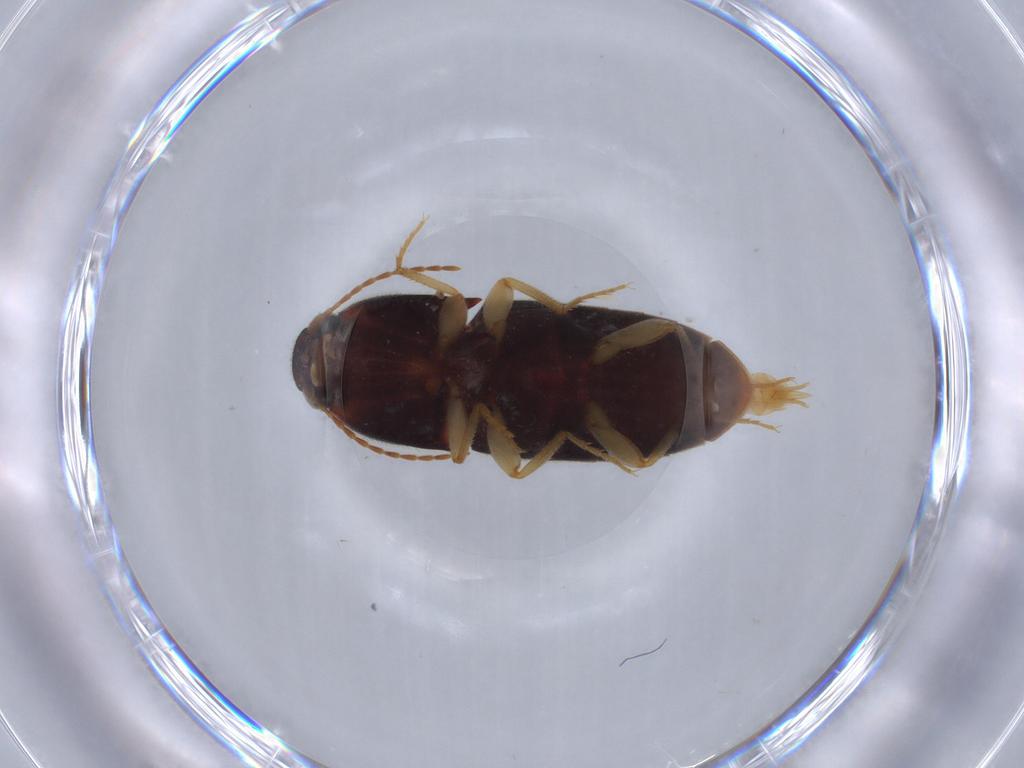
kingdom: Animalia
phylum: Arthropoda
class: Insecta
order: Coleoptera
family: Elateridae
